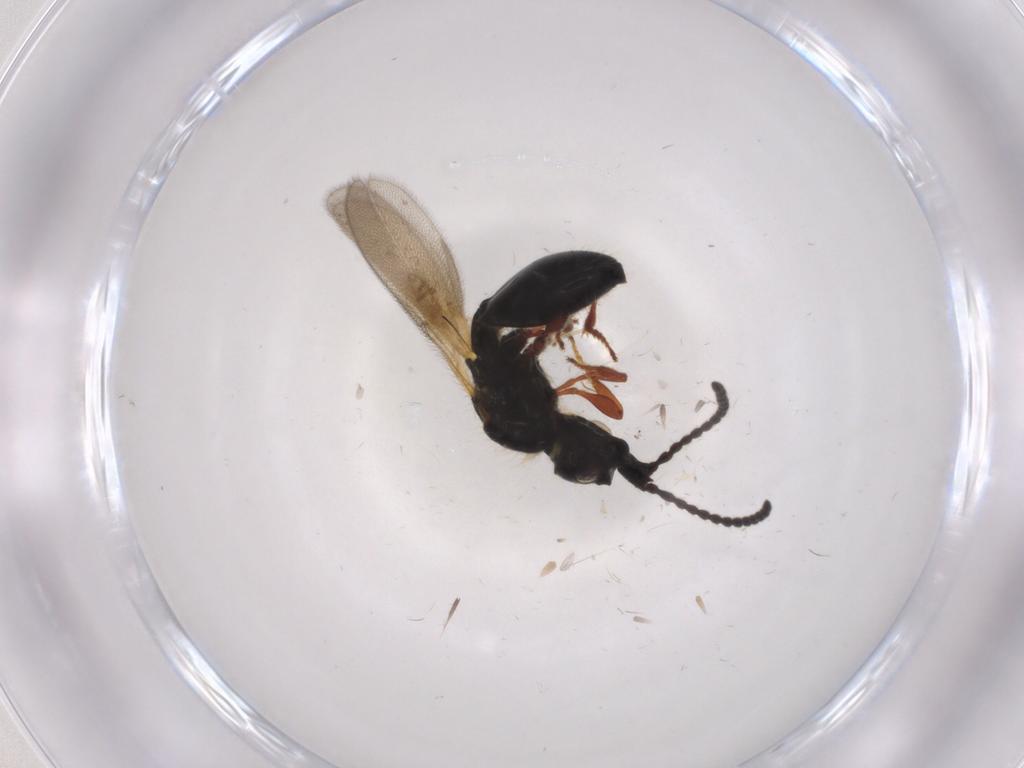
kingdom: Animalia
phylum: Arthropoda
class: Insecta
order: Hymenoptera
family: Diapriidae
